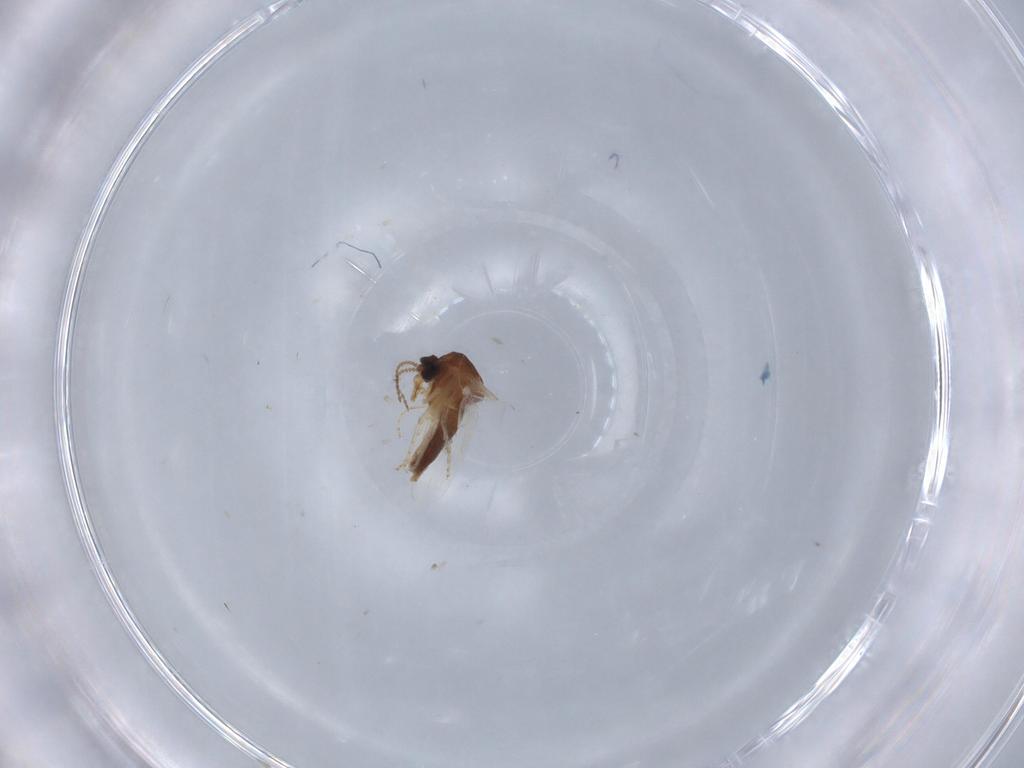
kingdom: Animalia
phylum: Arthropoda
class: Insecta
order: Diptera
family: Ceratopogonidae
